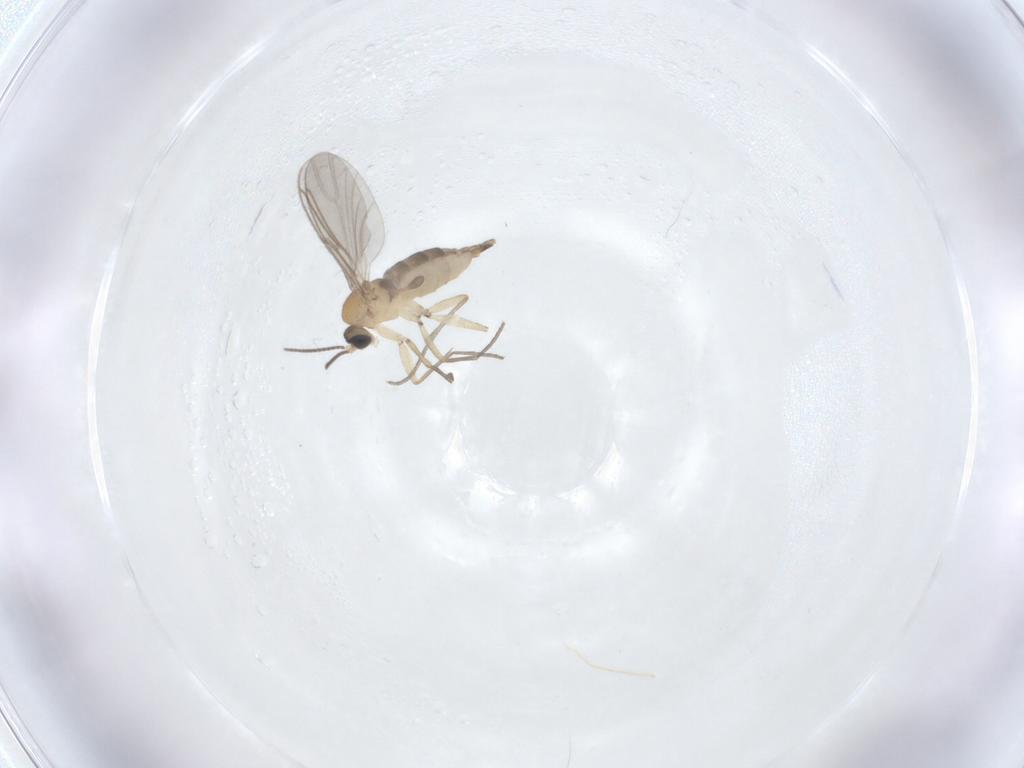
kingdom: Animalia
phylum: Arthropoda
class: Insecta
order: Diptera
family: Sciaridae
